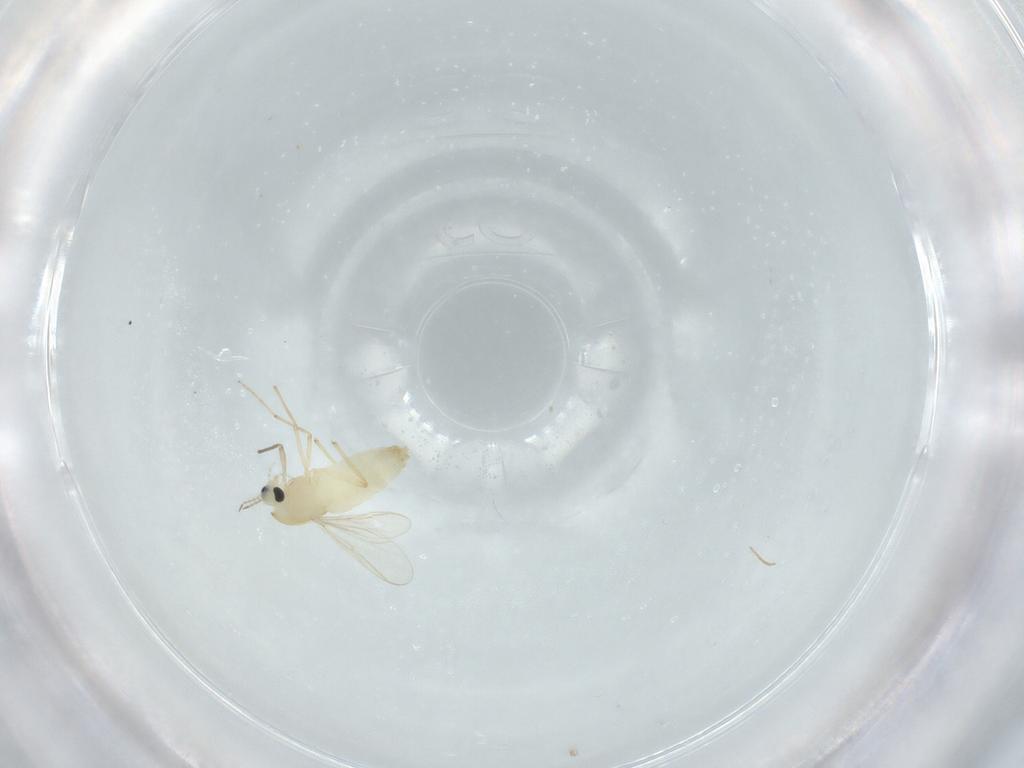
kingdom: Animalia
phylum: Arthropoda
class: Insecta
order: Diptera
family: Chironomidae
